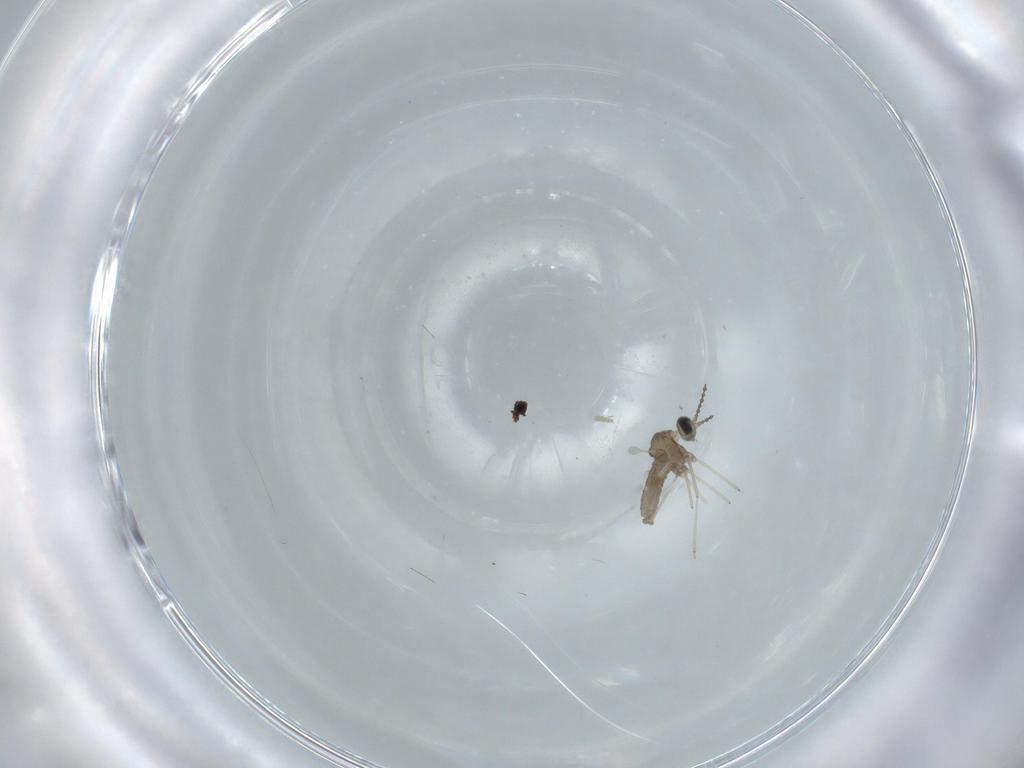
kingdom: Animalia
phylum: Arthropoda
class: Insecta
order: Diptera
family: Cecidomyiidae
